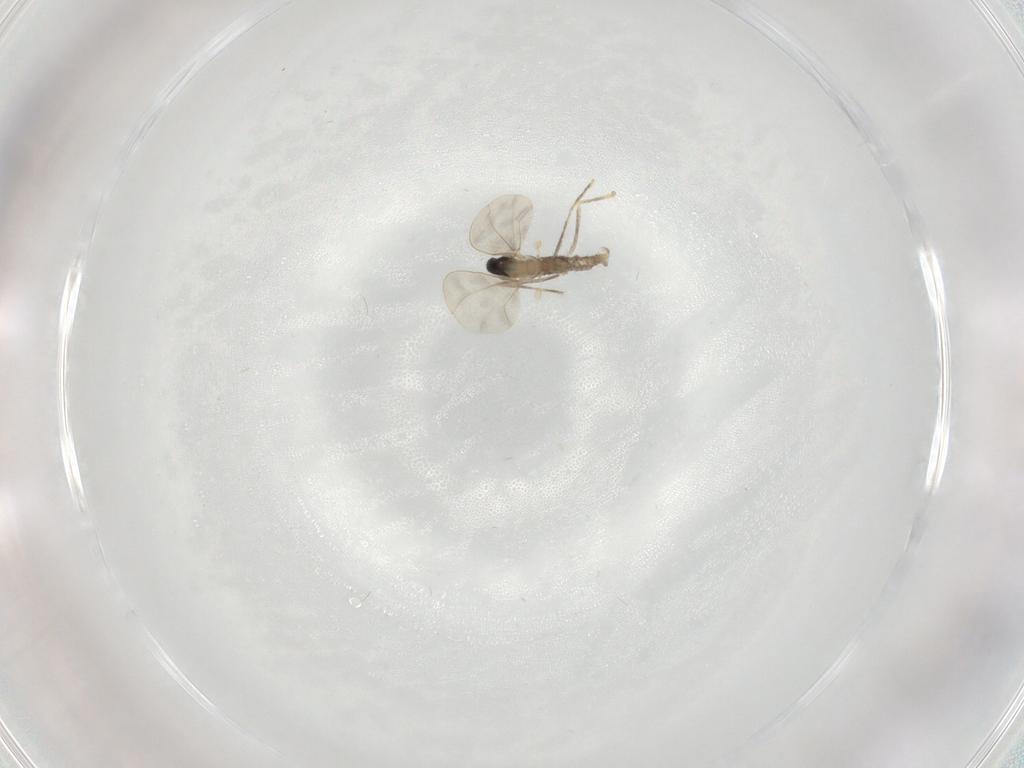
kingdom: Animalia
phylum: Arthropoda
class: Insecta
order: Diptera
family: Cecidomyiidae
